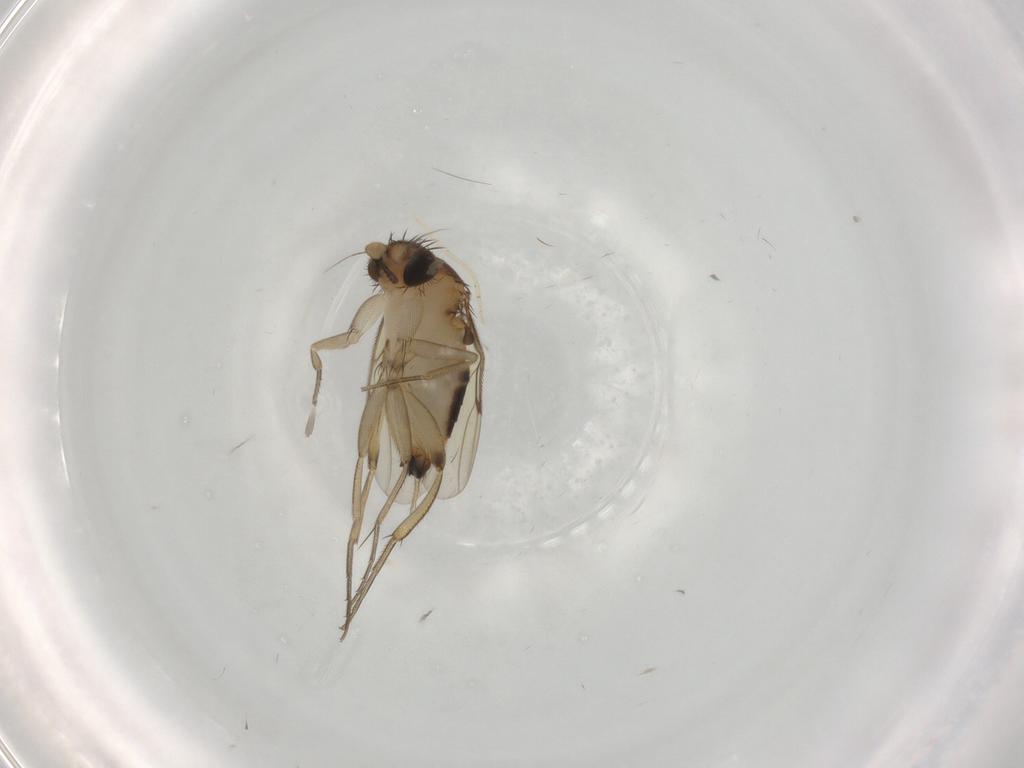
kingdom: Animalia
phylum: Arthropoda
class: Insecta
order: Diptera
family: Phoridae
